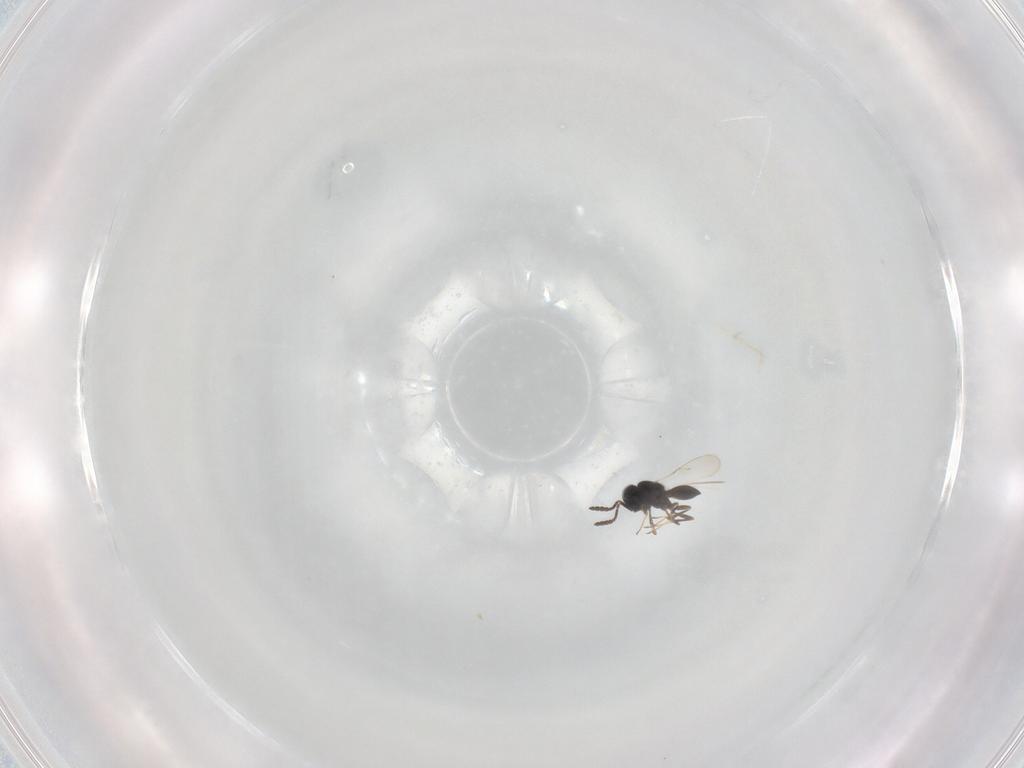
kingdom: Animalia
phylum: Arthropoda
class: Insecta
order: Hymenoptera
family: Scelionidae
